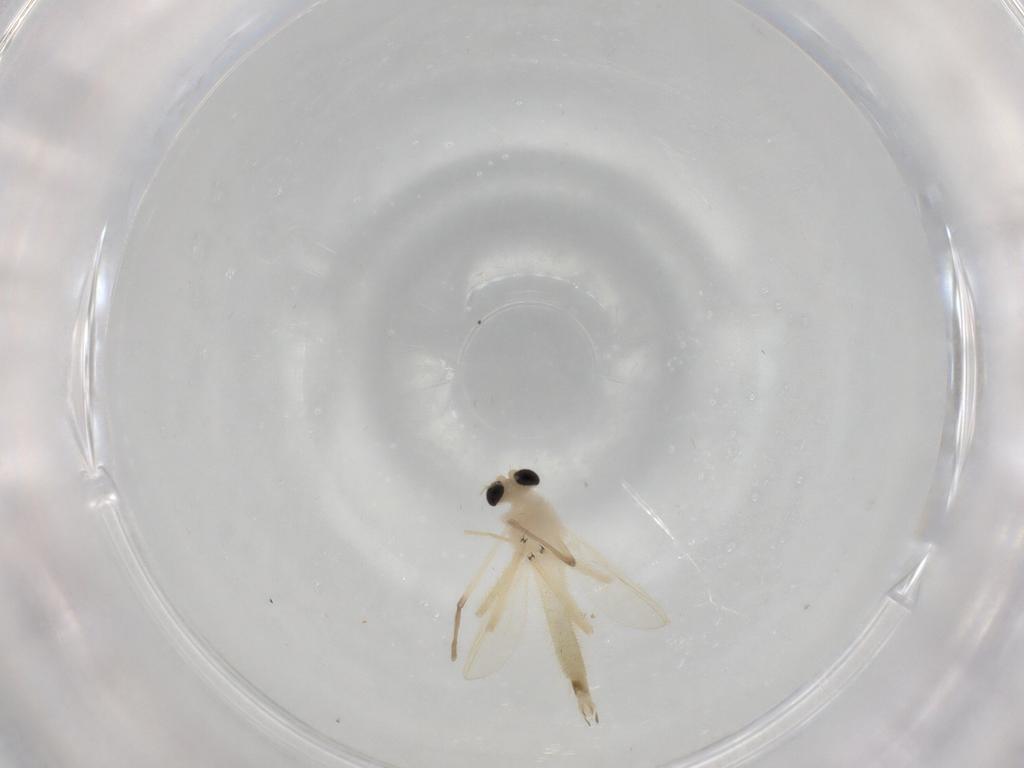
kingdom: Animalia
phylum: Arthropoda
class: Insecta
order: Diptera
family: Chironomidae
